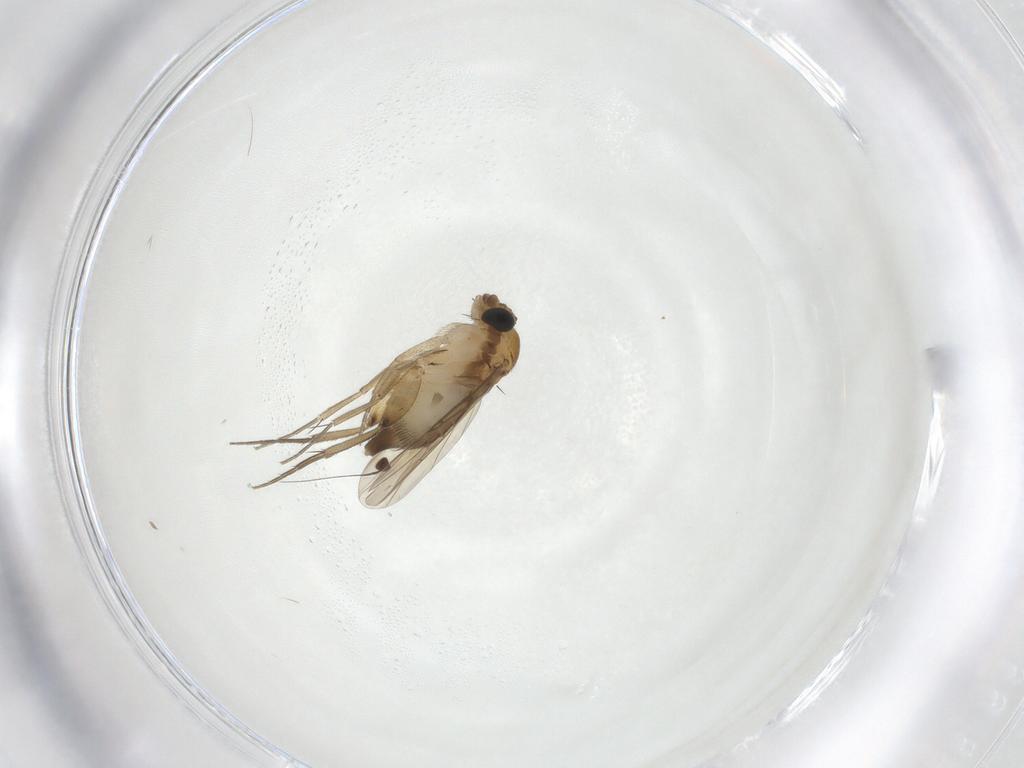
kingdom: Animalia
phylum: Arthropoda
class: Insecta
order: Diptera
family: Phoridae
